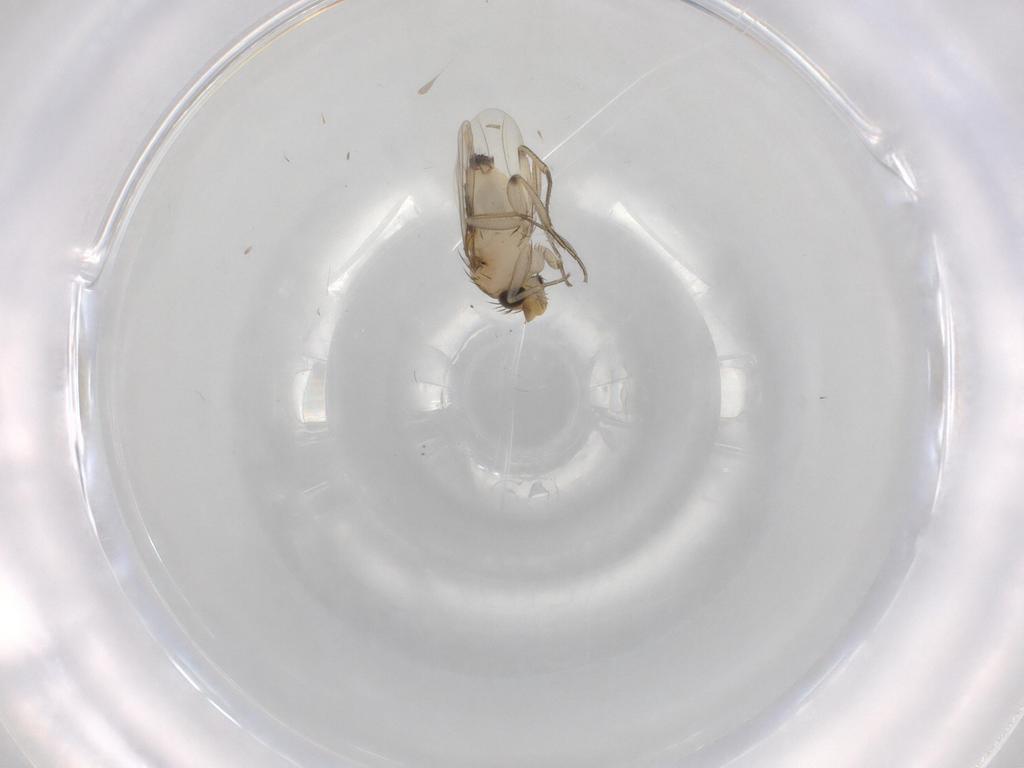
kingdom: Animalia
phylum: Arthropoda
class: Insecta
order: Diptera
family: Phoridae
